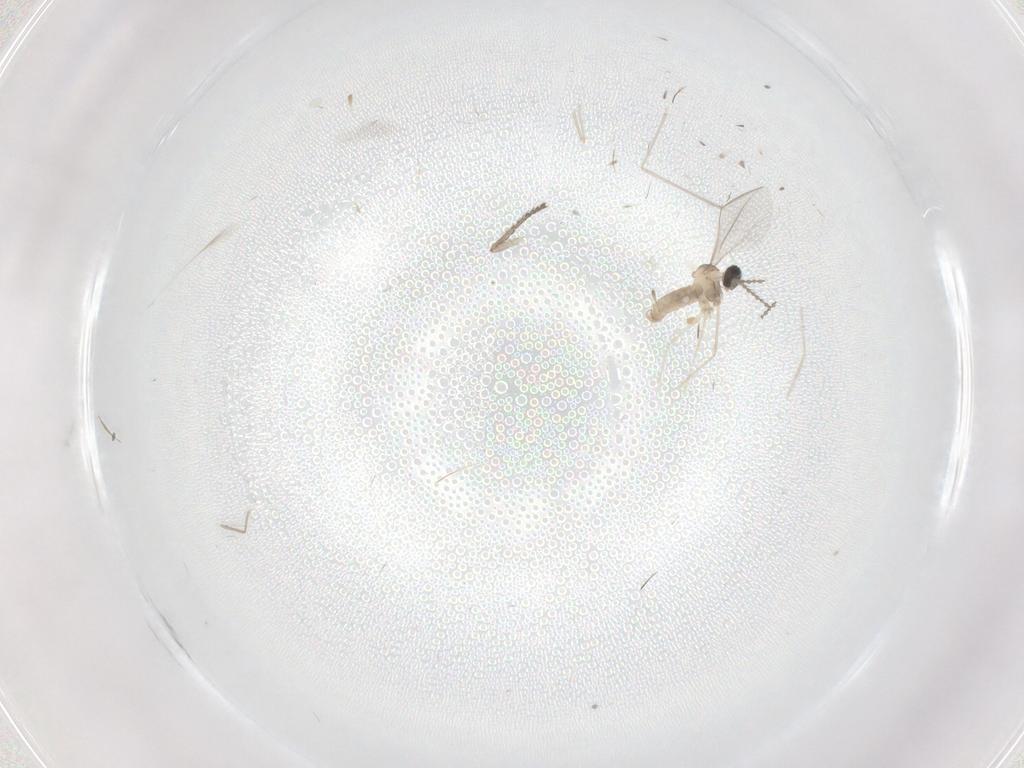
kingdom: Animalia
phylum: Arthropoda
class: Insecta
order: Diptera
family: Cecidomyiidae
